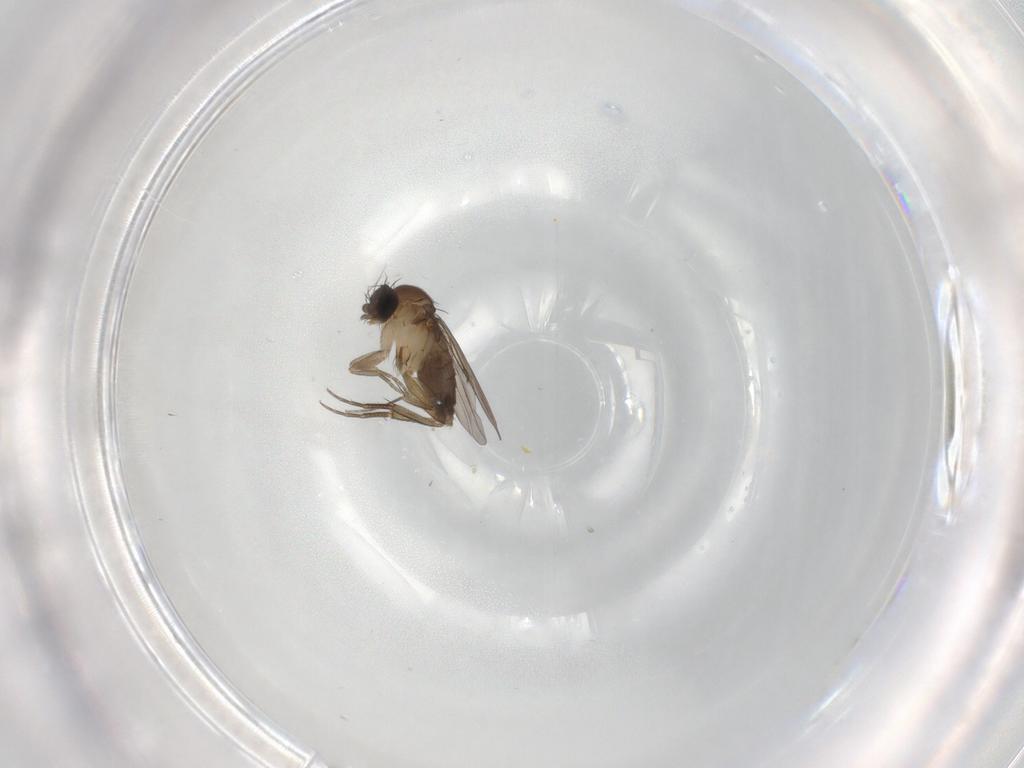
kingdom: Animalia
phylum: Arthropoda
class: Insecta
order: Diptera
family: Phoridae
